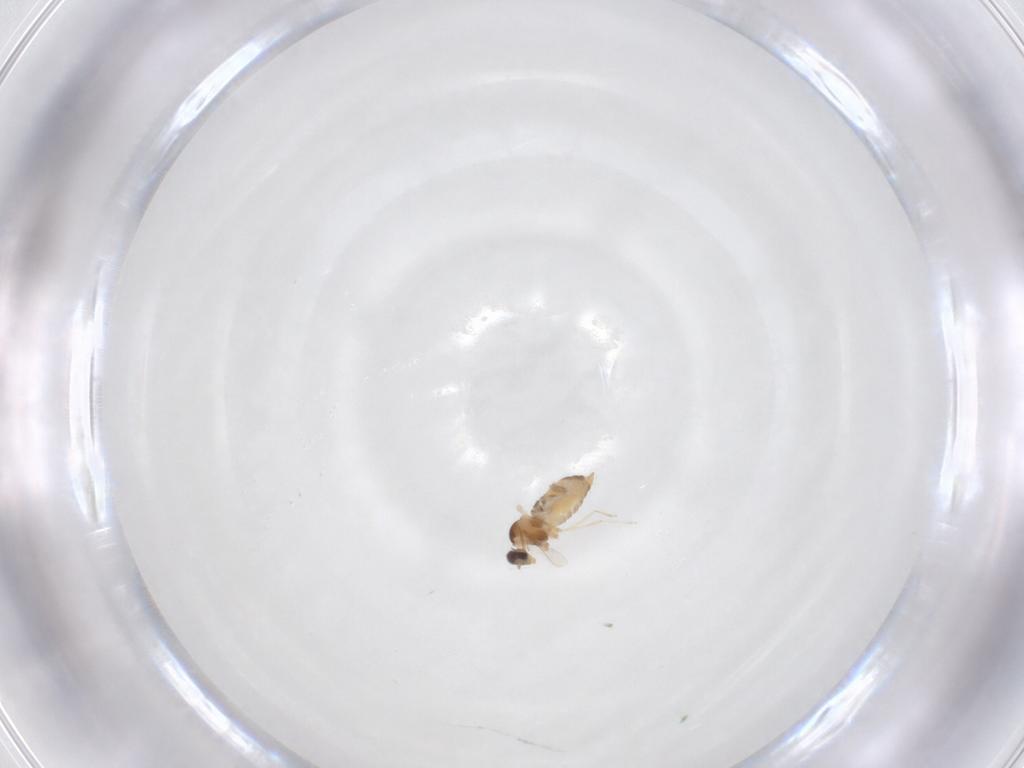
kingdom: Animalia
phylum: Arthropoda
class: Insecta
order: Diptera
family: Cecidomyiidae
